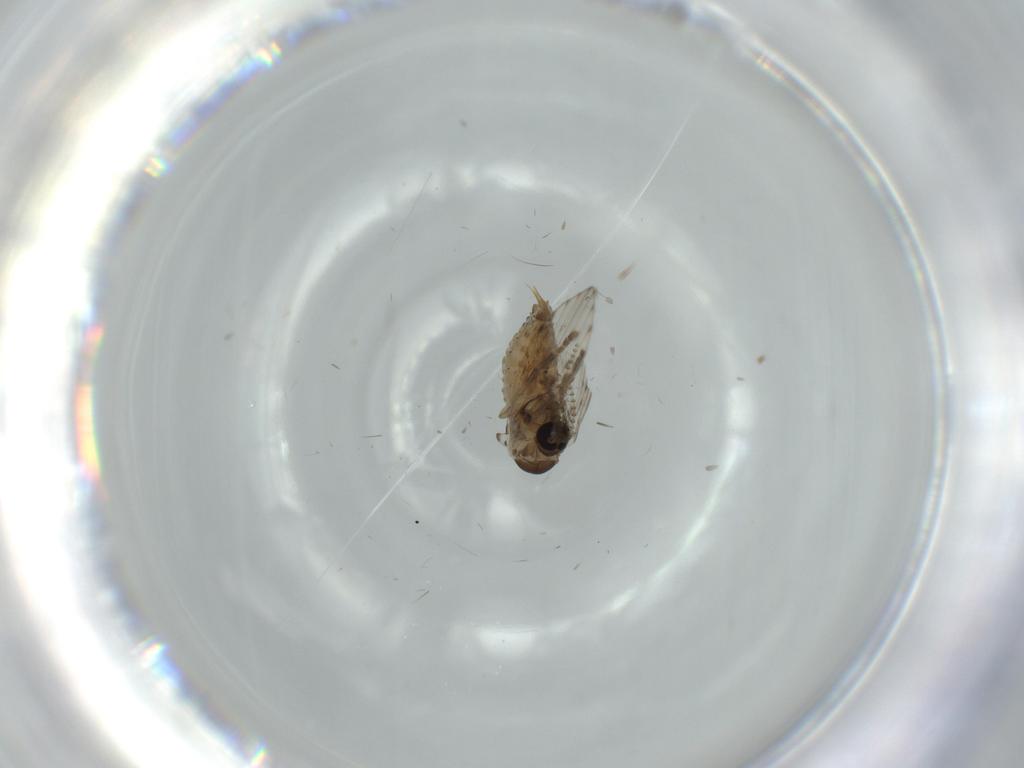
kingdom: Animalia
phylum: Arthropoda
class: Insecta
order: Diptera
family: Psychodidae
